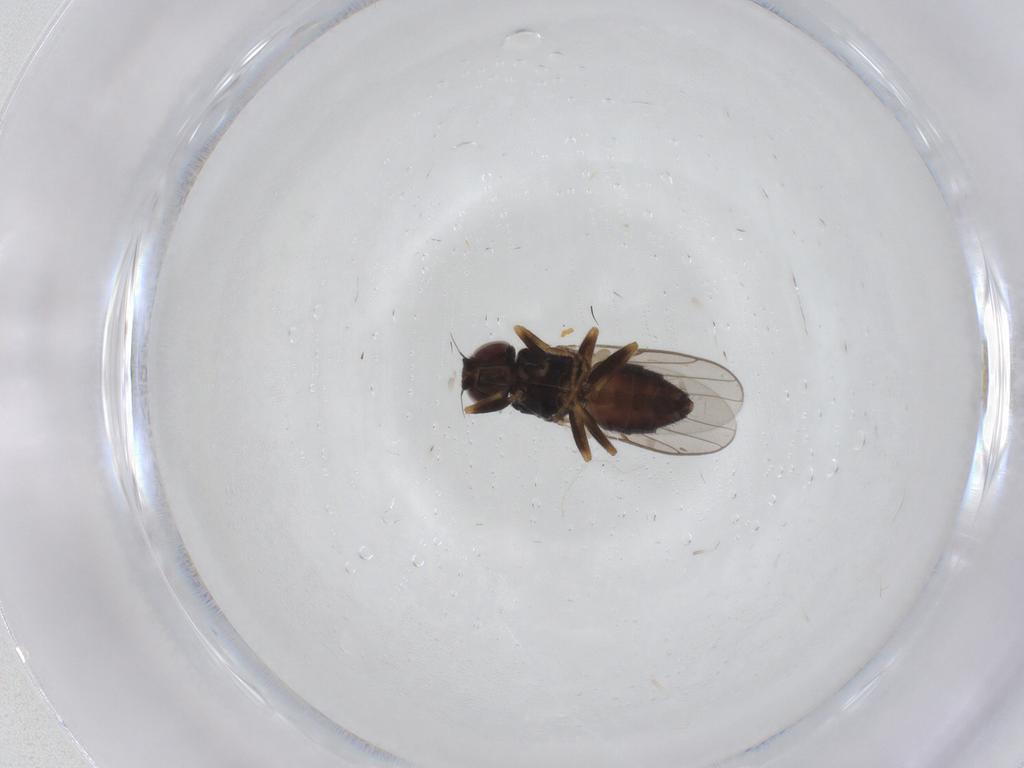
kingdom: Animalia
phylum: Arthropoda
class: Insecta
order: Diptera
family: Chloropidae
